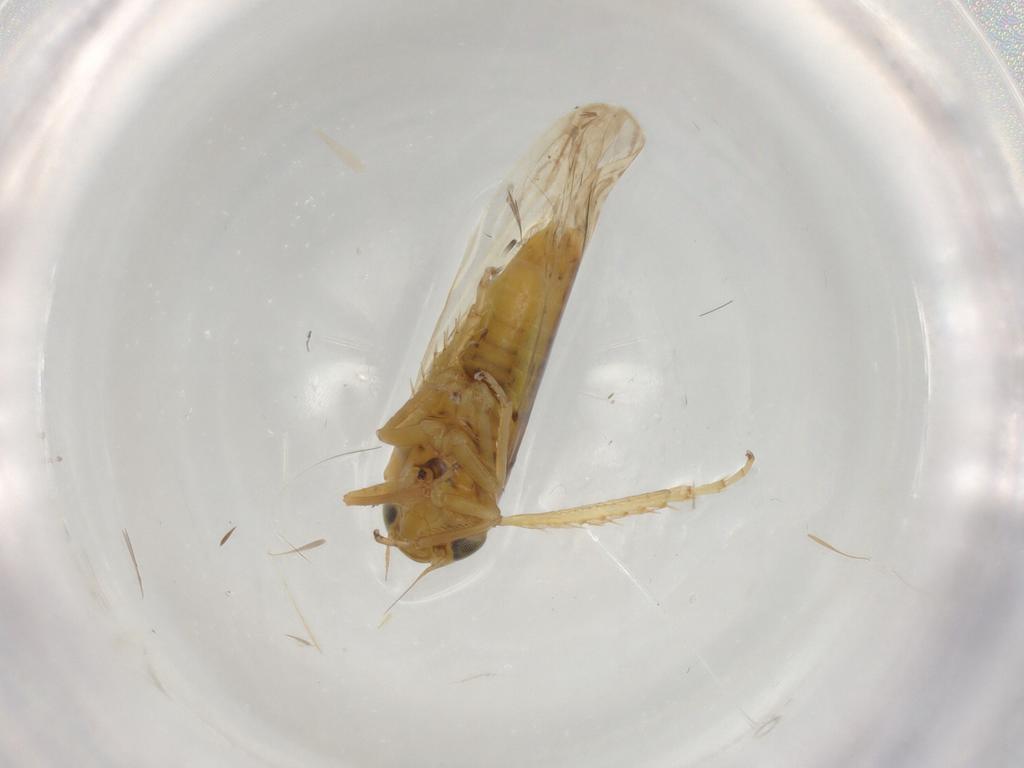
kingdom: Animalia
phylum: Arthropoda
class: Insecta
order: Hemiptera
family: Cicadellidae
